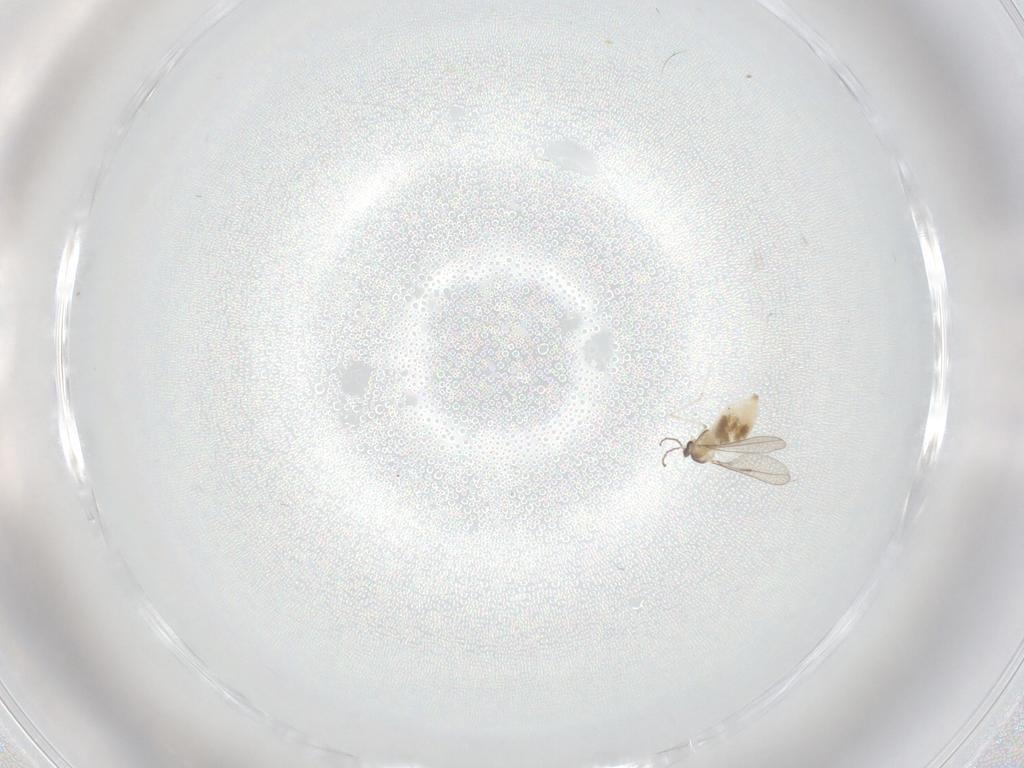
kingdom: Animalia
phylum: Arthropoda
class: Insecta
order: Diptera
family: Cecidomyiidae
